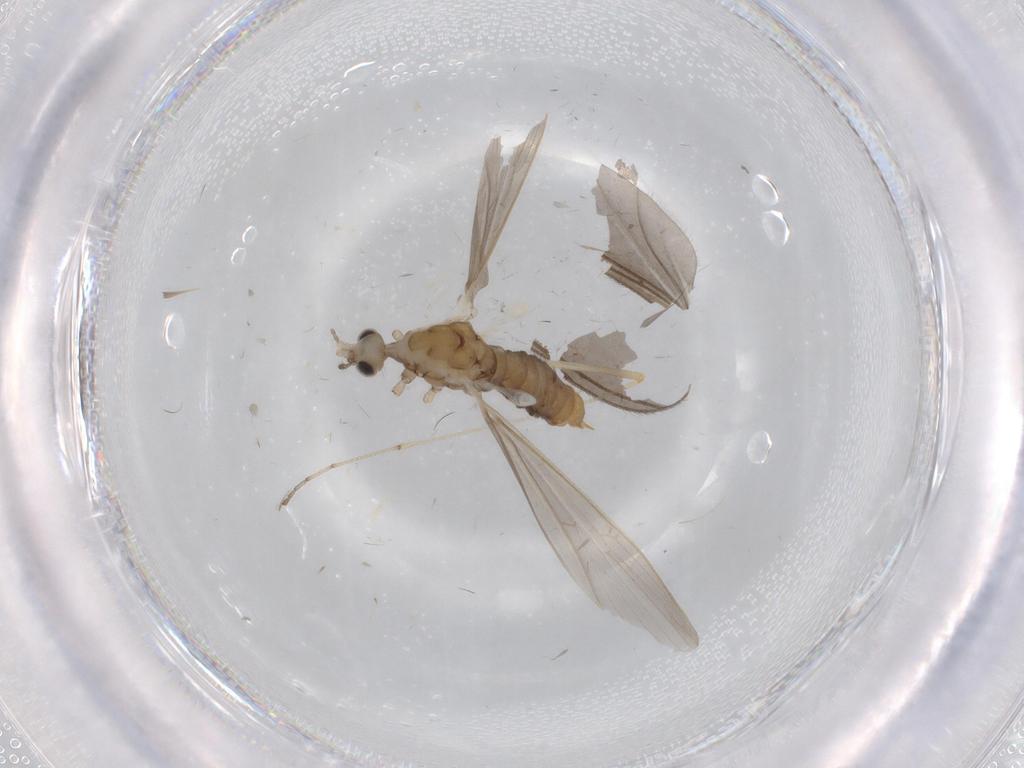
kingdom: Animalia
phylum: Arthropoda
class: Insecta
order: Diptera
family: Limoniidae
